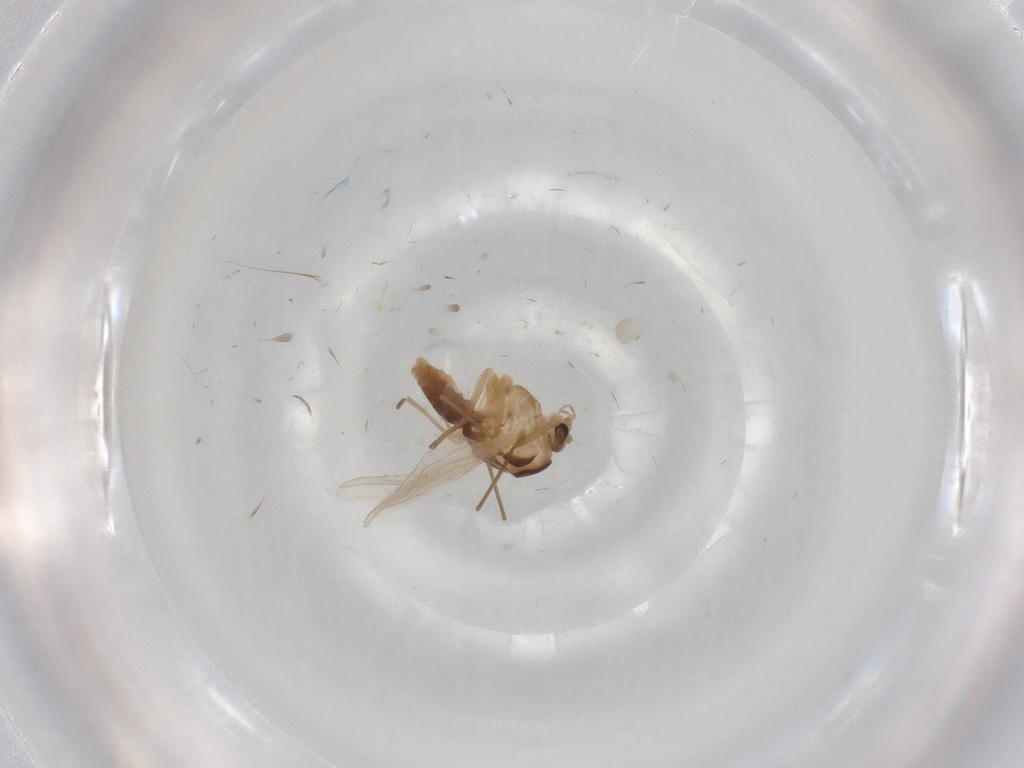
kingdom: Animalia
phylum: Arthropoda
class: Insecta
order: Diptera
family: Chironomidae
